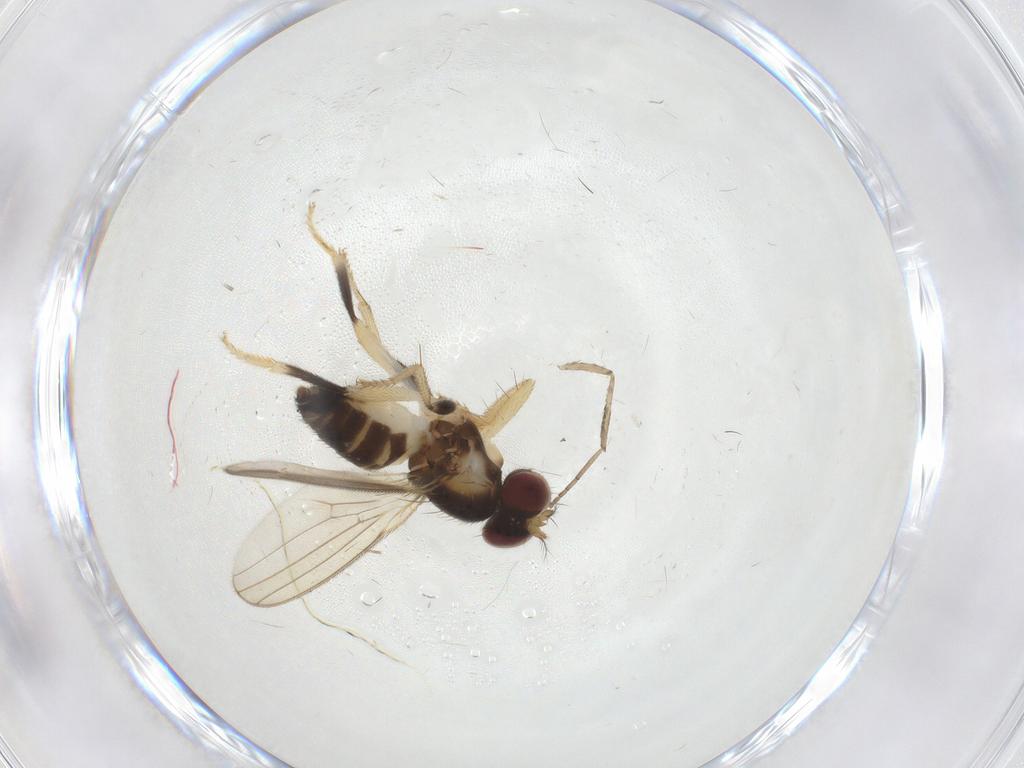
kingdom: Animalia
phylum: Arthropoda
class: Insecta
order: Diptera
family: Periscelididae
